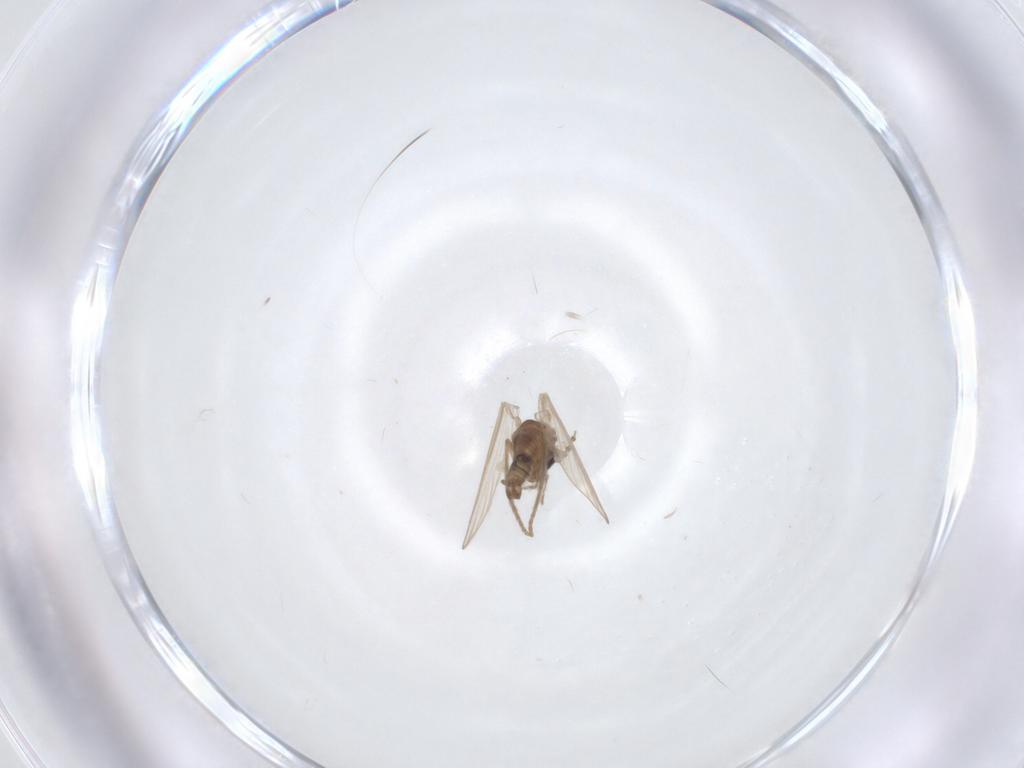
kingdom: Animalia
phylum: Arthropoda
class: Insecta
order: Diptera
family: Psychodidae
